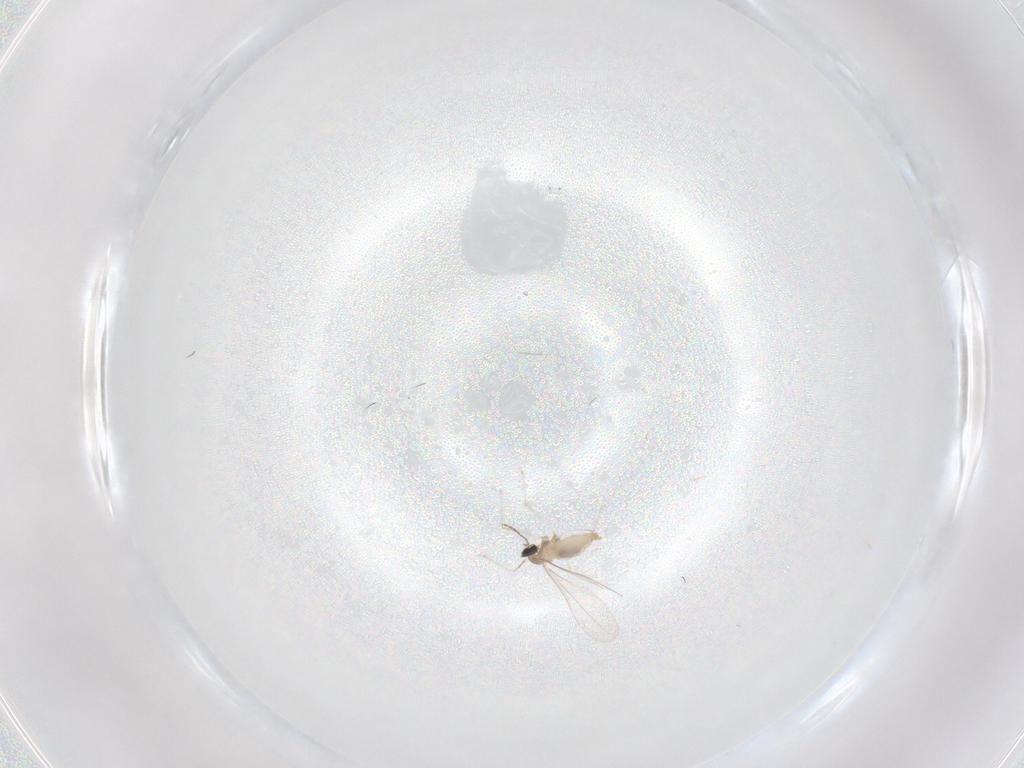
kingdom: Animalia
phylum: Arthropoda
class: Insecta
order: Diptera
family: Cecidomyiidae
